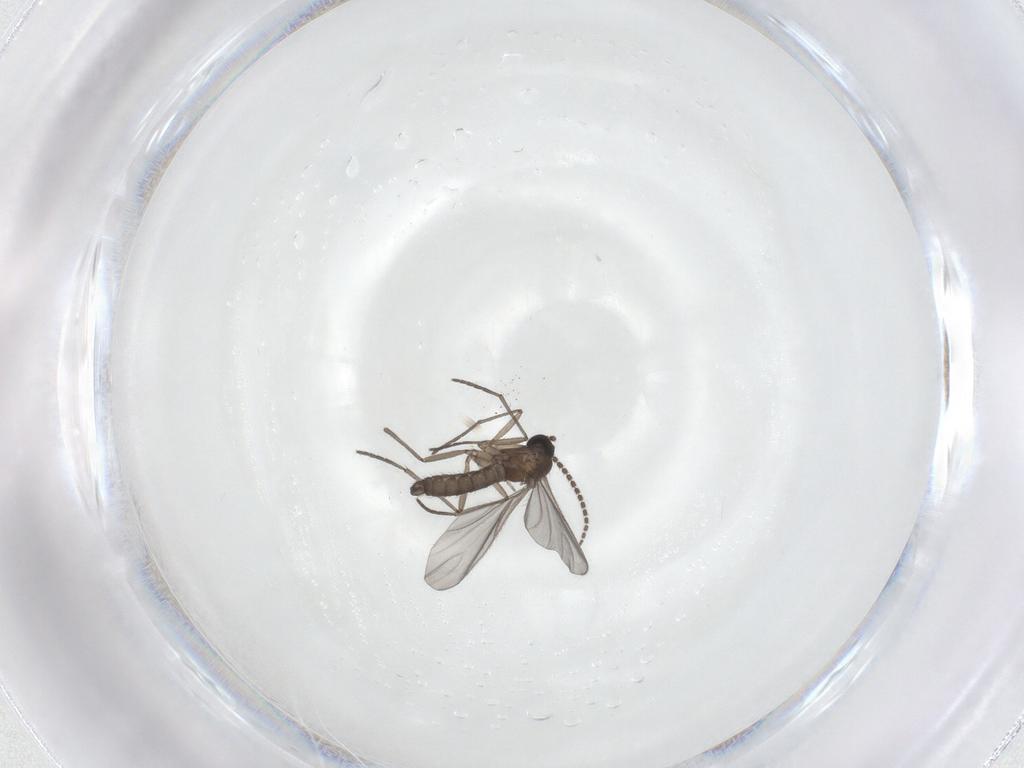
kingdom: Animalia
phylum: Arthropoda
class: Insecta
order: Diptera
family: Sciaridae
